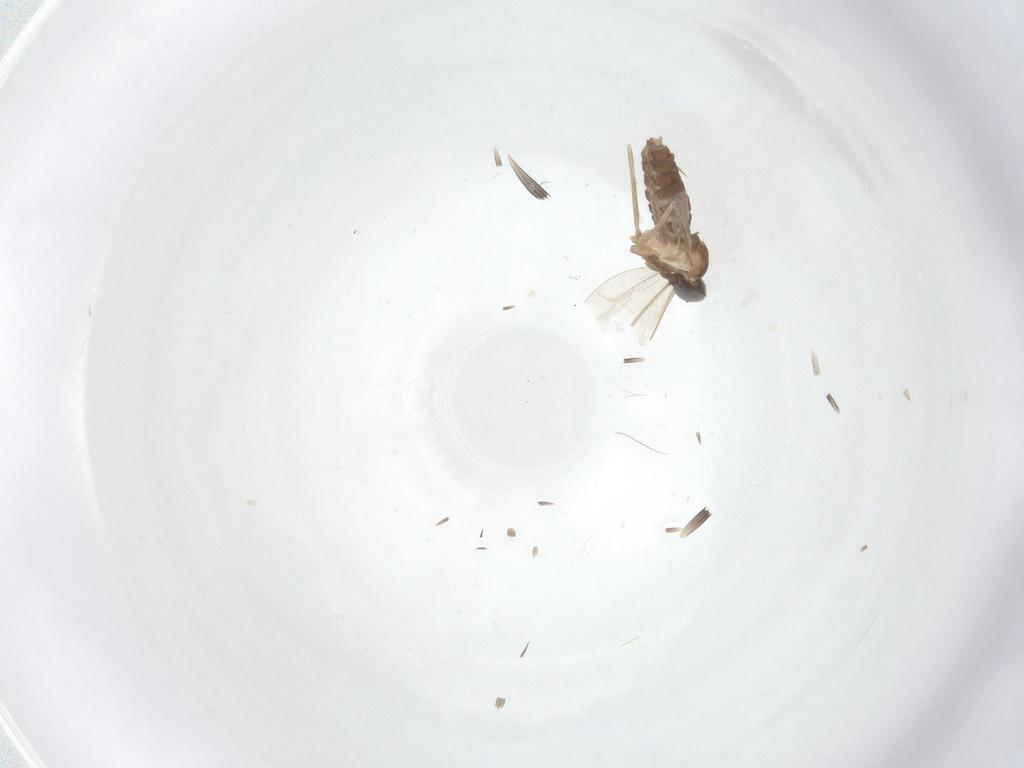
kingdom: Animalia
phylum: Arthropoda
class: Insecta
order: Diptera
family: Cecidomyiidae
